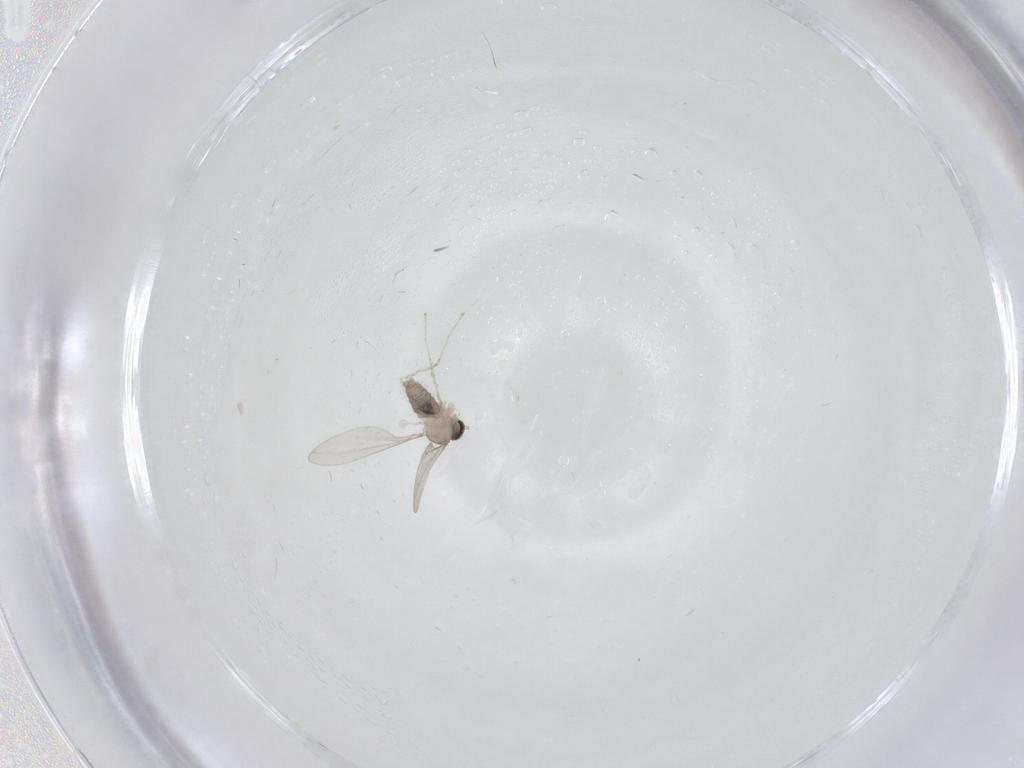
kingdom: Animalia
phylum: Arthropoda
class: Insecta
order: Diptera
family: Cecidomyiidae
